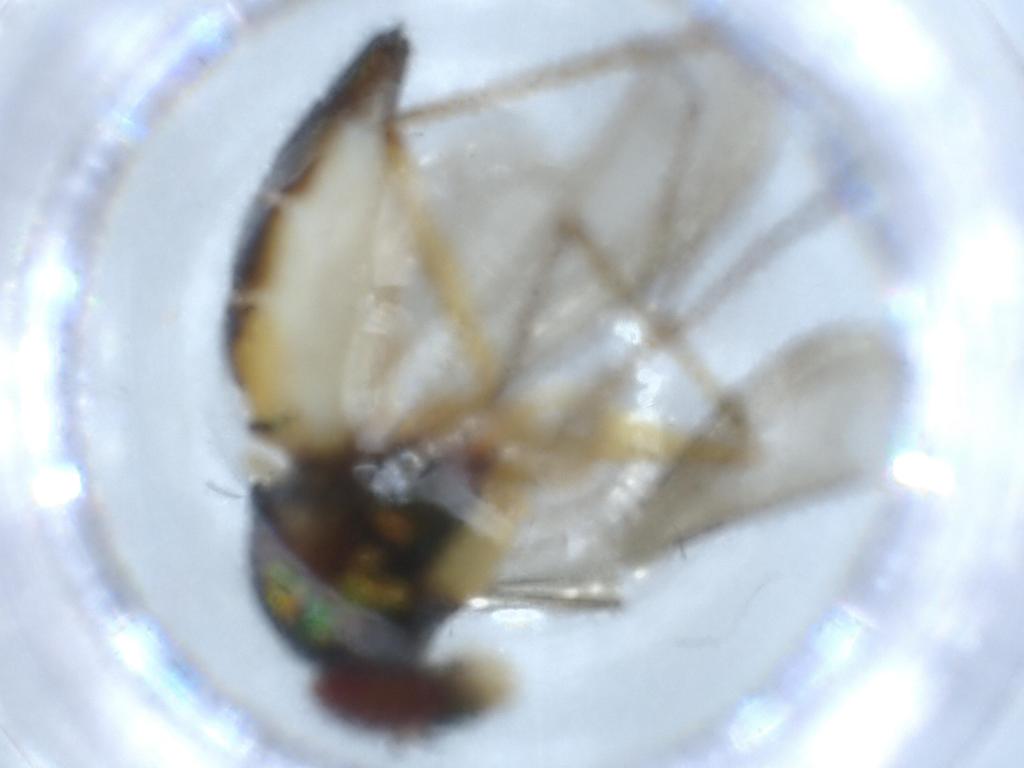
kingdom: Animalia
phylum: Arthropoda
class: Insecta
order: Diptera
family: Dolichopodidae
